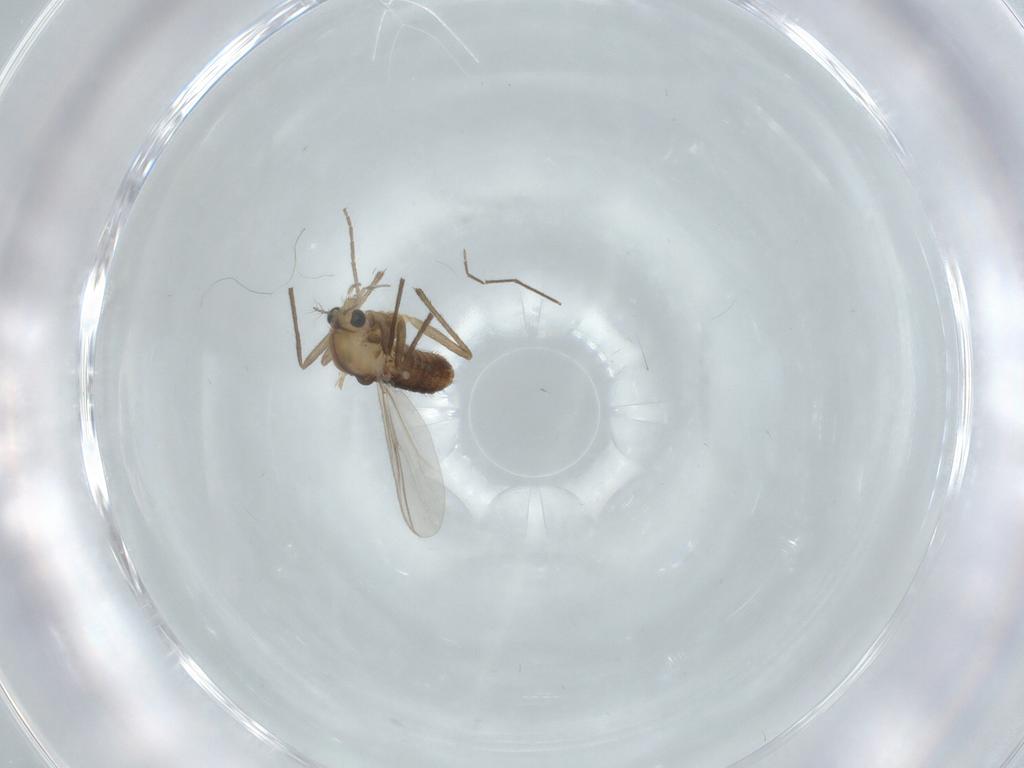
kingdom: Animalia
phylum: Arthropoda
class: Insecta
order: Diptera
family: Chironomidae
